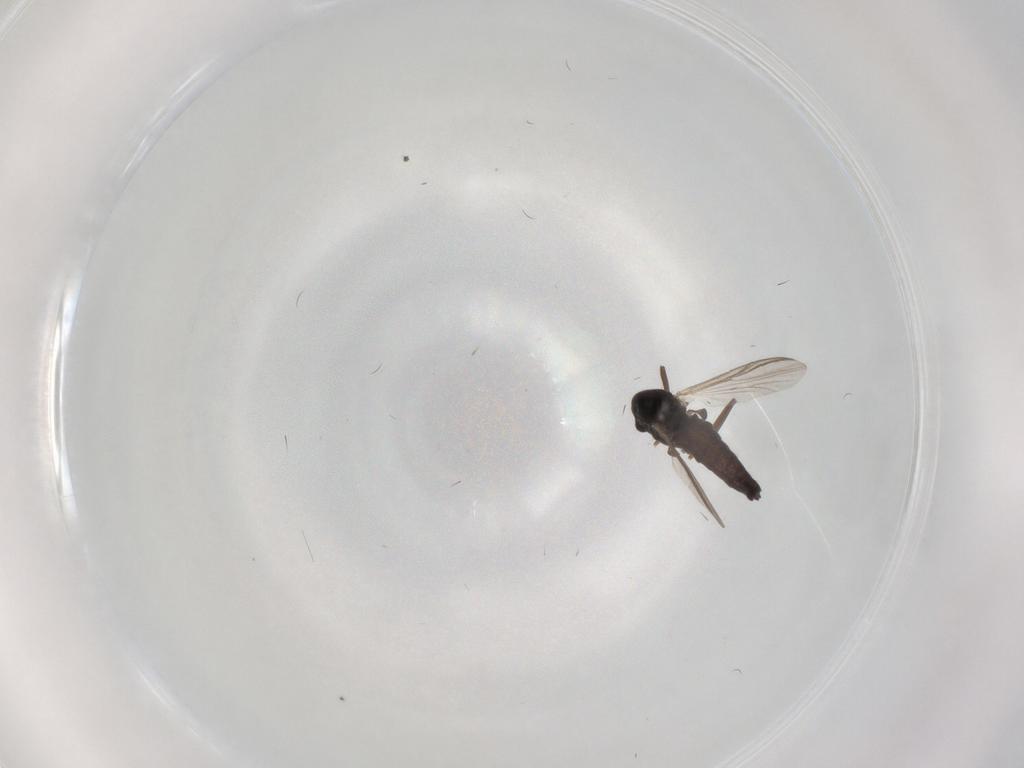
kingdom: Animalia
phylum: Arthropoda
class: Insecta
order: Diptera
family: Chironomidae
